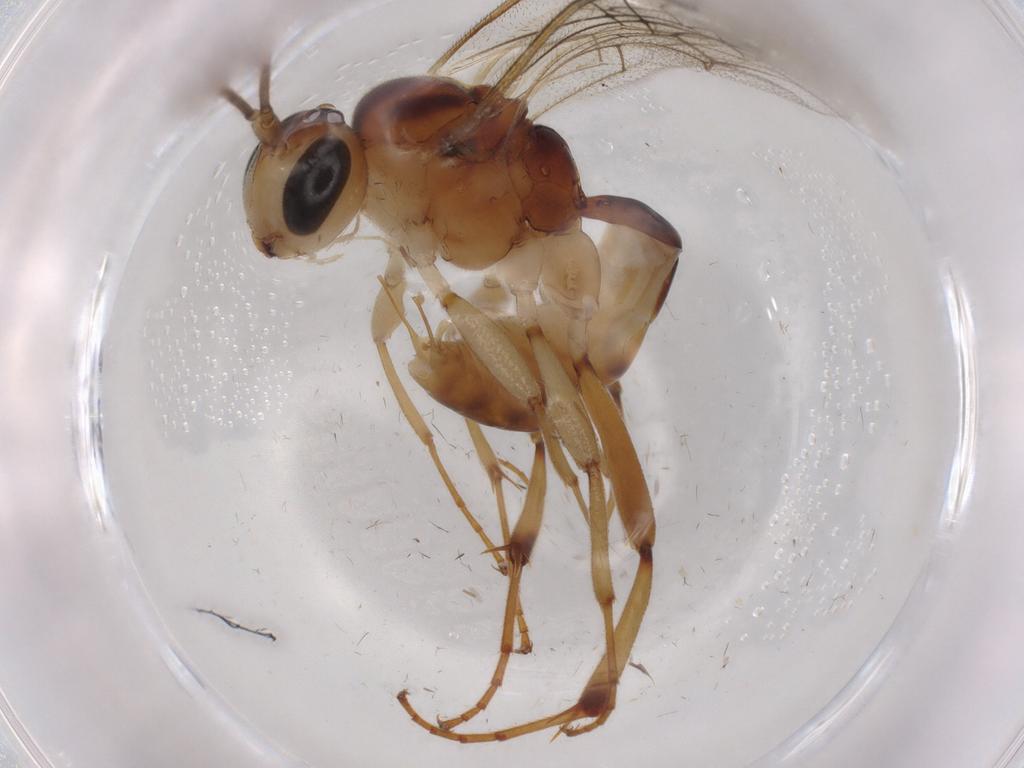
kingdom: Animalia
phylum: Arthropoda
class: Insecta
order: Hymenoptera
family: Ichneumonidae
